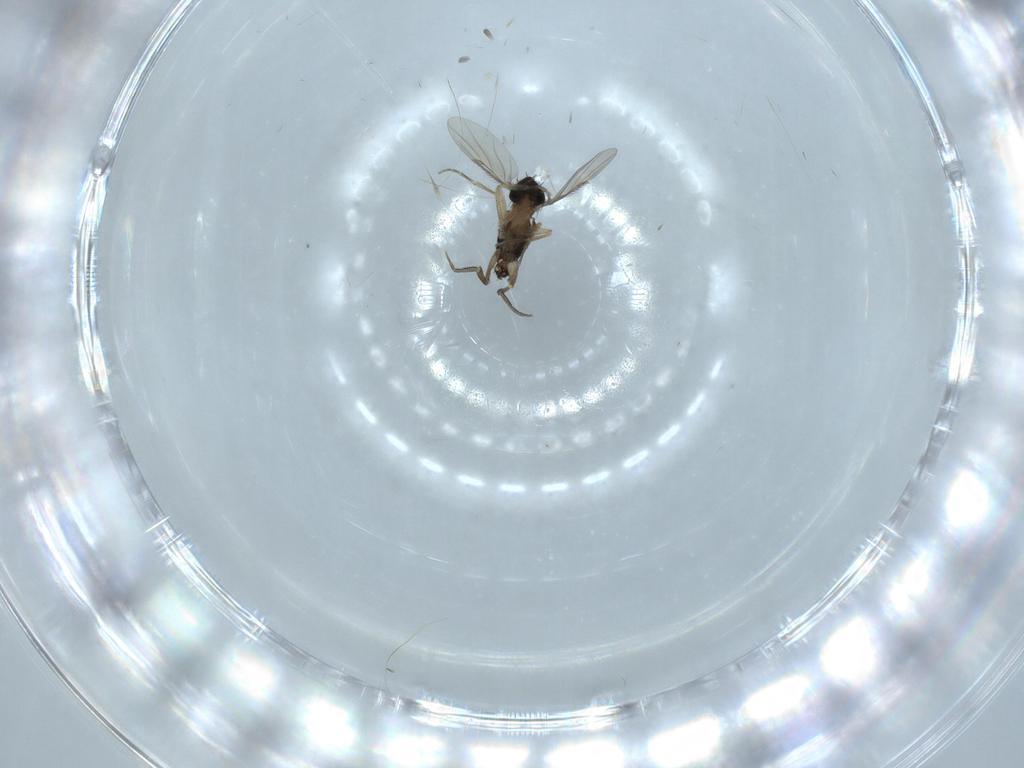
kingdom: Animalia
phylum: Arthropoda
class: Insecta
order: Diptera
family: Phoridae
